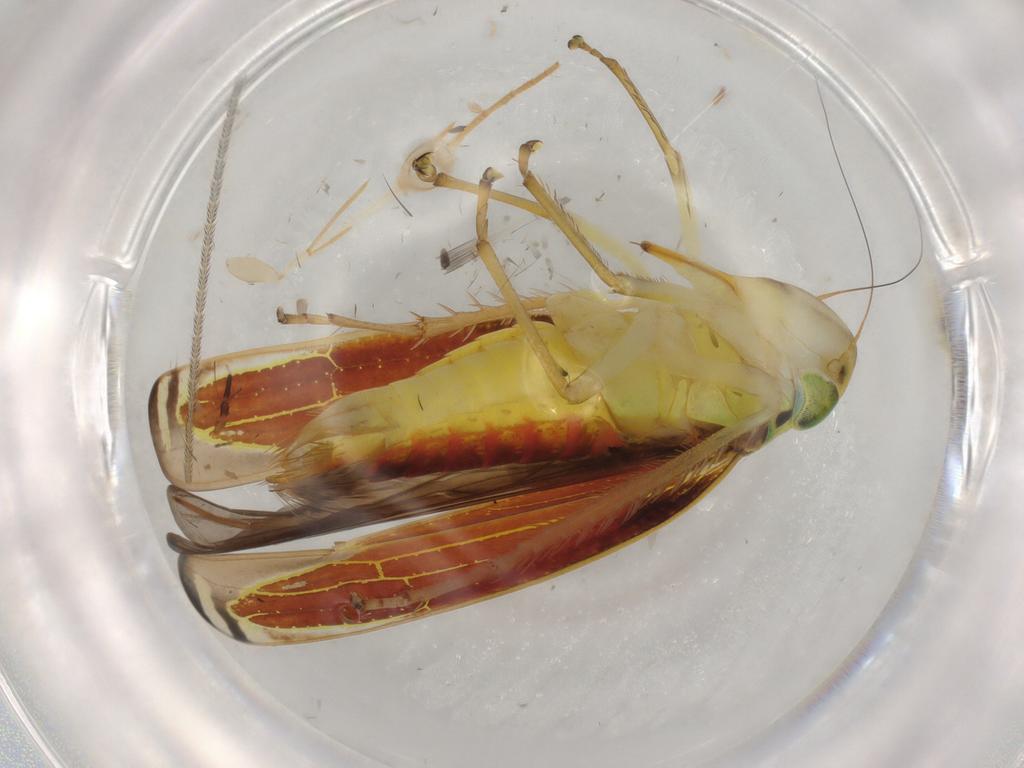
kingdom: Animalia
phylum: Arthropoda
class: Insecta
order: Hemiptera
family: Cicadellidae
